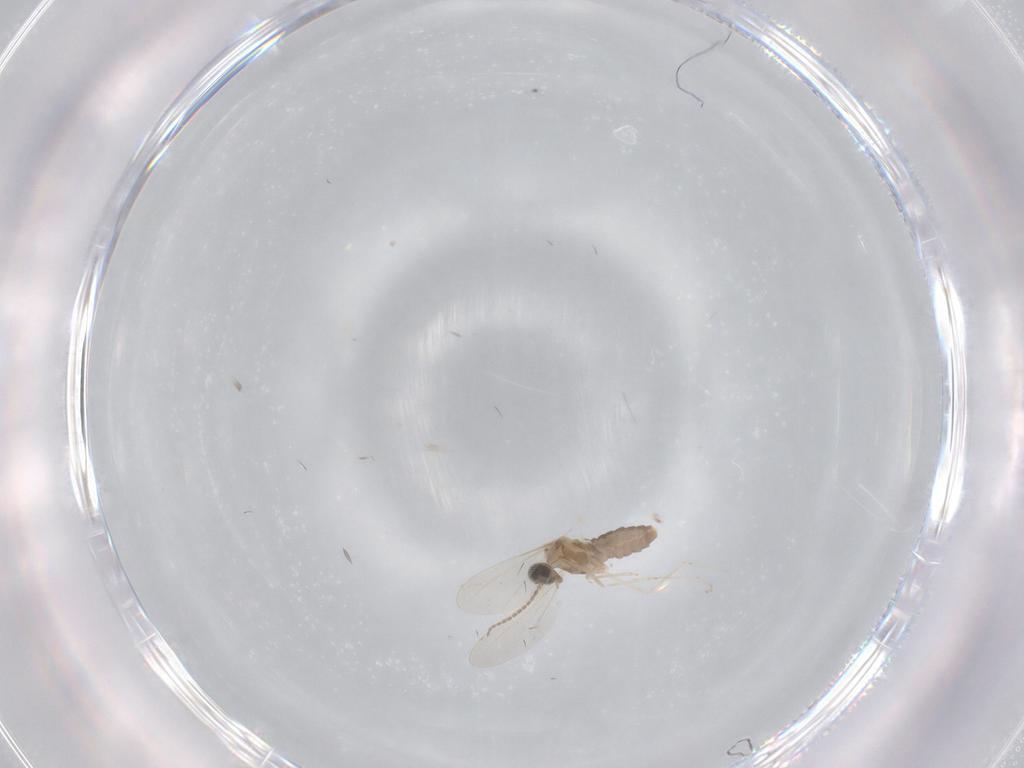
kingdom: Animalia
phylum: Arthropoda
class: Insecta
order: Diptera
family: Cecidomyiidae
